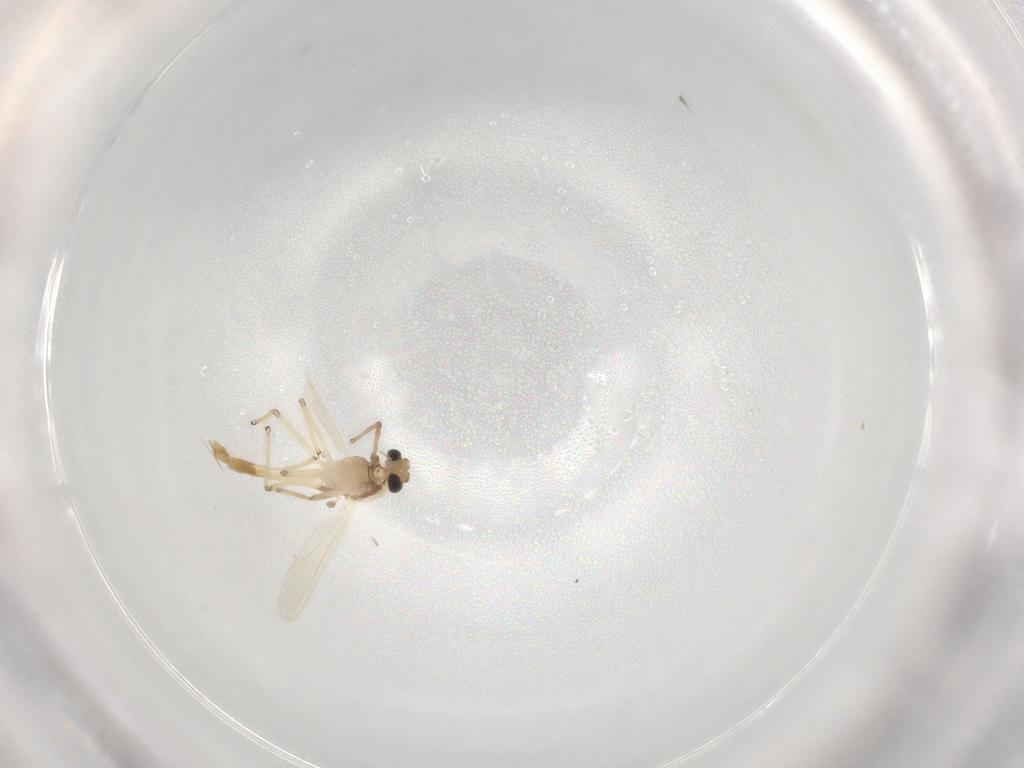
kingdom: Animalia
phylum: Arthropoda
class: Insecta
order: Diptera
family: Chironomidae
